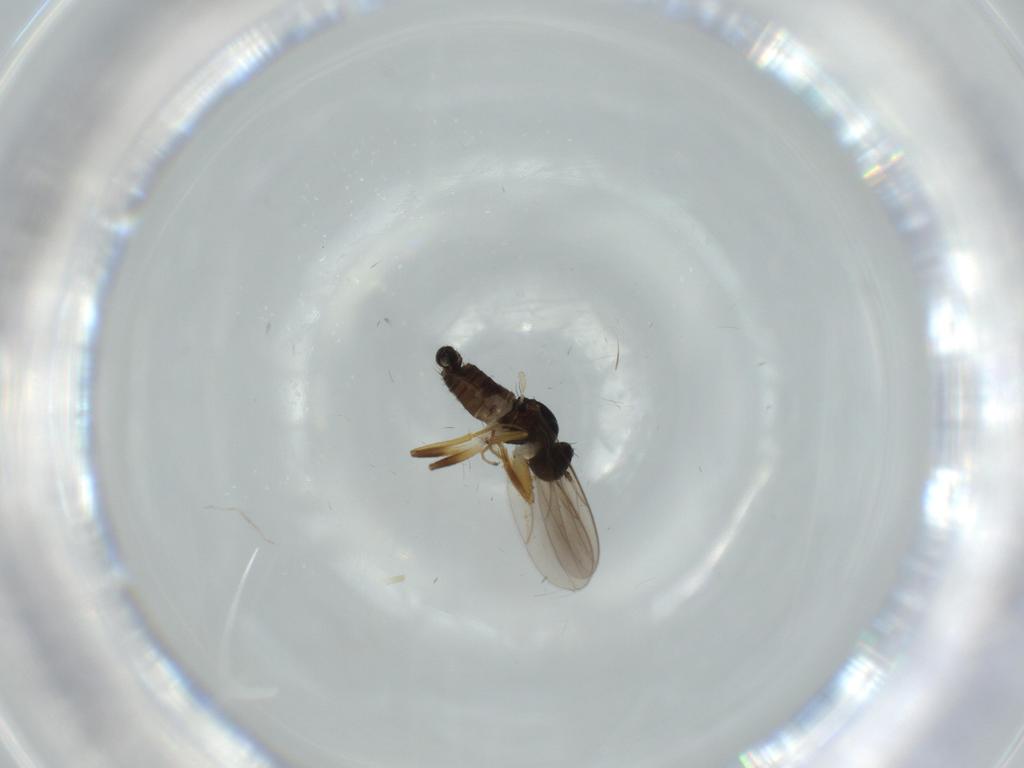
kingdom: Animalia
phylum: Arthropoda
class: Insecta
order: Diptera
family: Hybotidae
